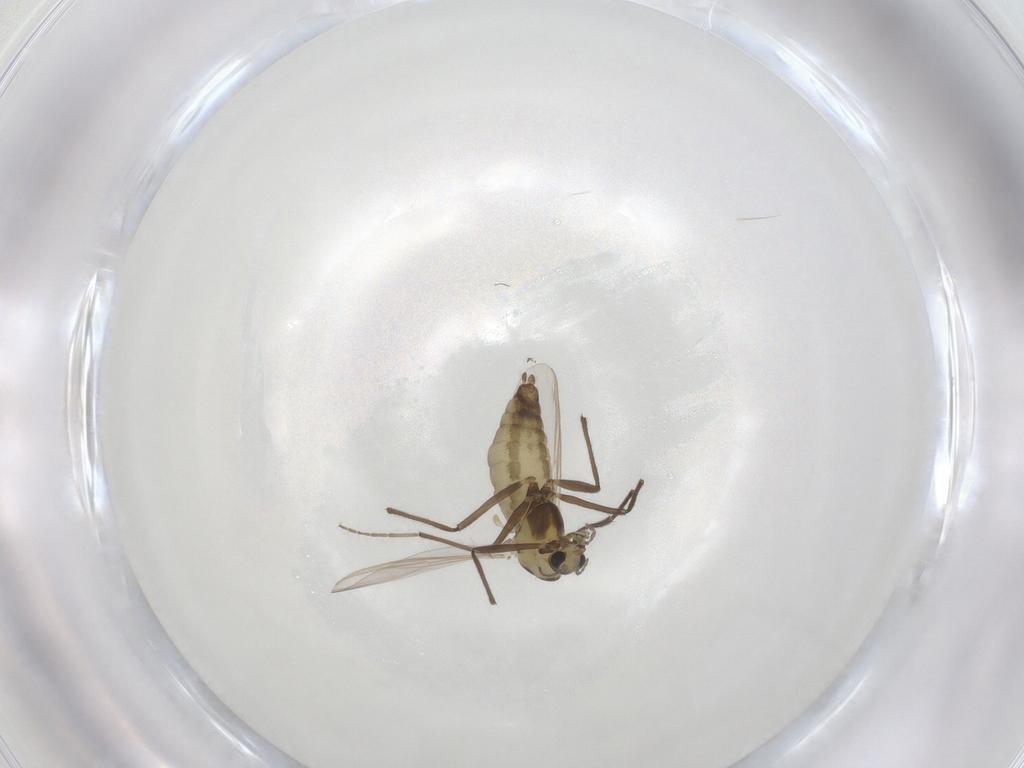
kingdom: Animalia
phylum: Arthropoda
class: Insecta
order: Diptera
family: Chironomidae
